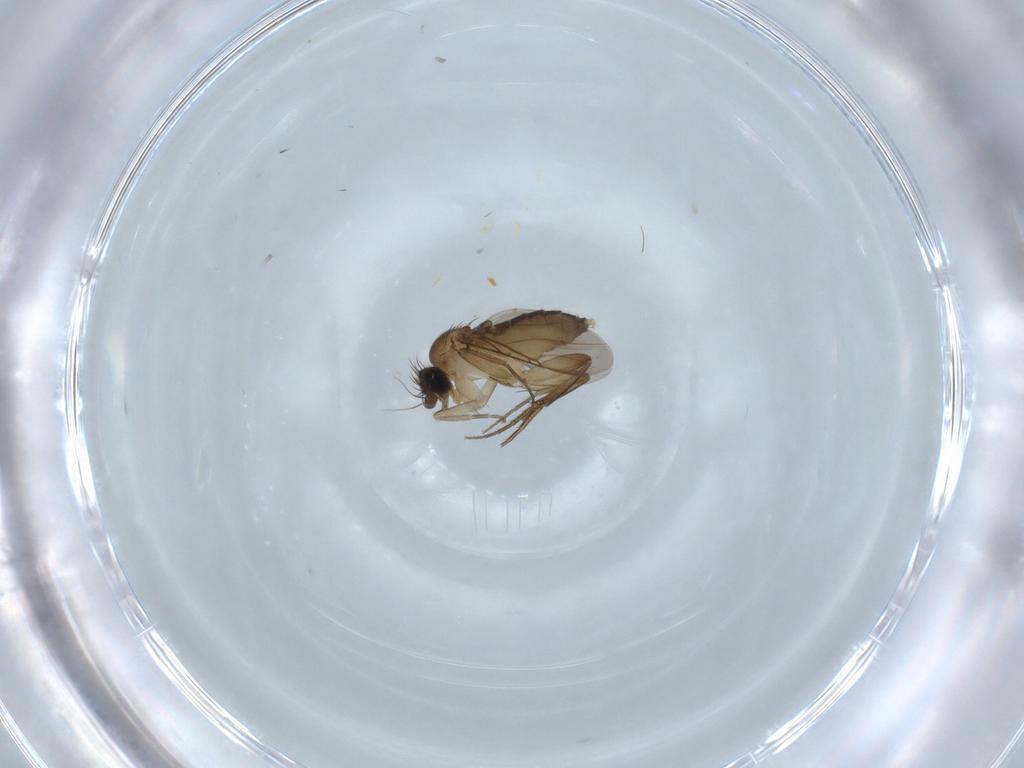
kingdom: Animalia
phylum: Arthropoda
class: Insecta
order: Diptera
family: Phoridae
